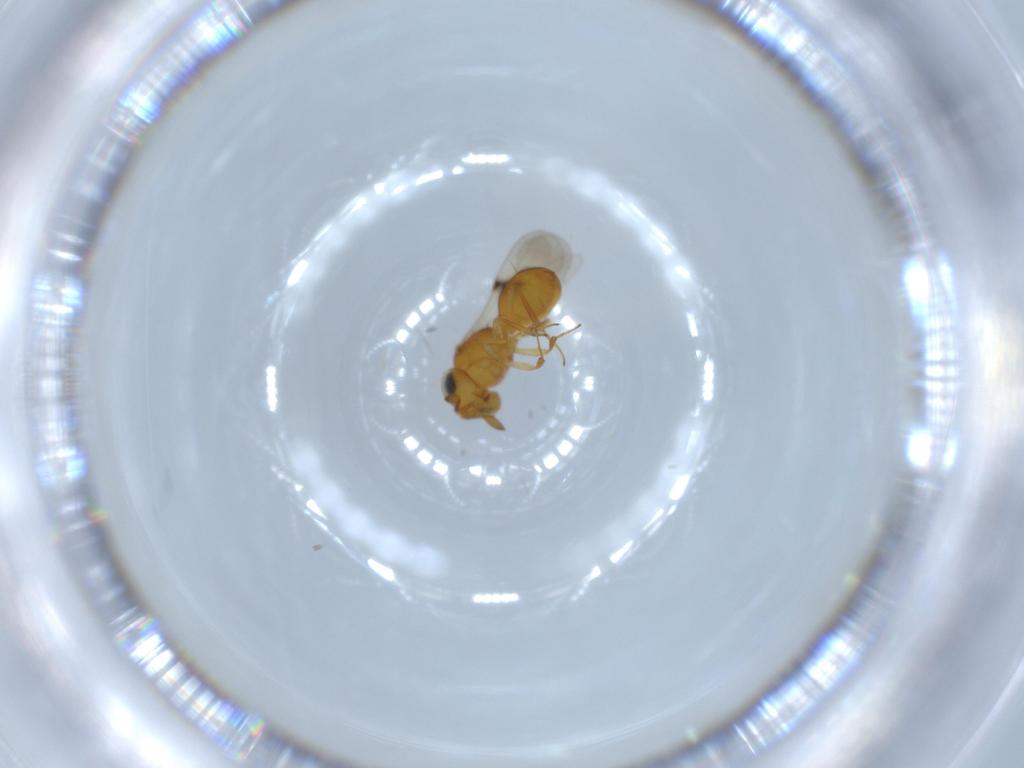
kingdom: Animalia
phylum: Arthropoda
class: Insecta
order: Hymenoptera
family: Scelionidae
